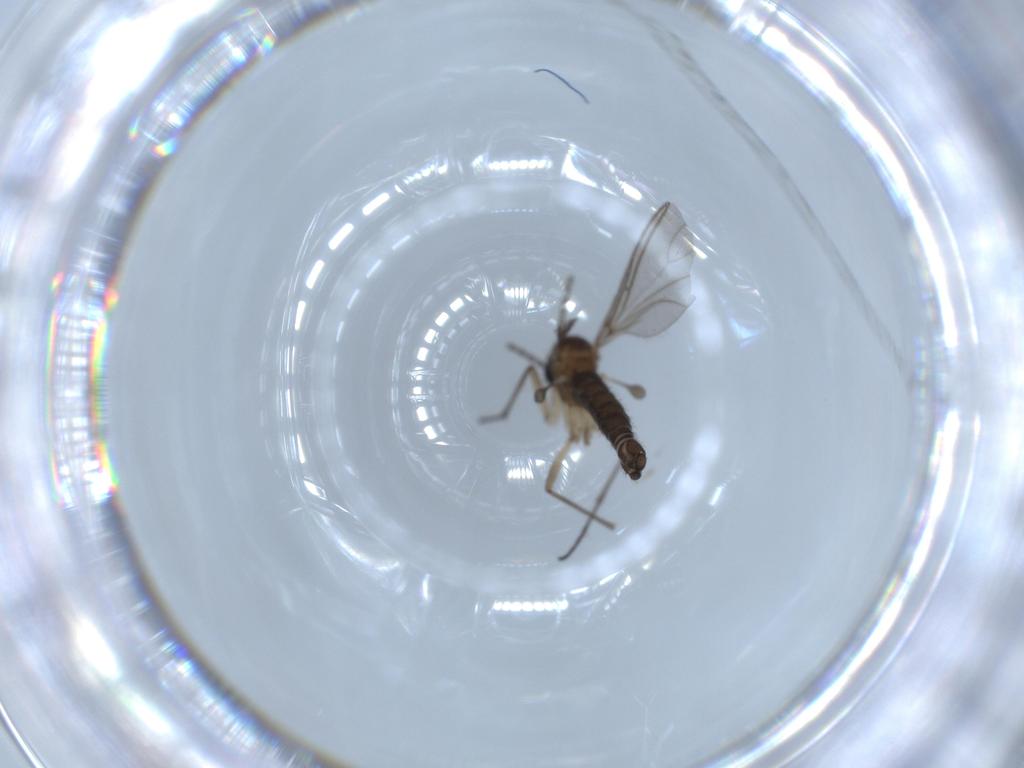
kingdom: Animalia
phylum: Arthropoda
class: Insecta
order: Diptera
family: Sciaridae
